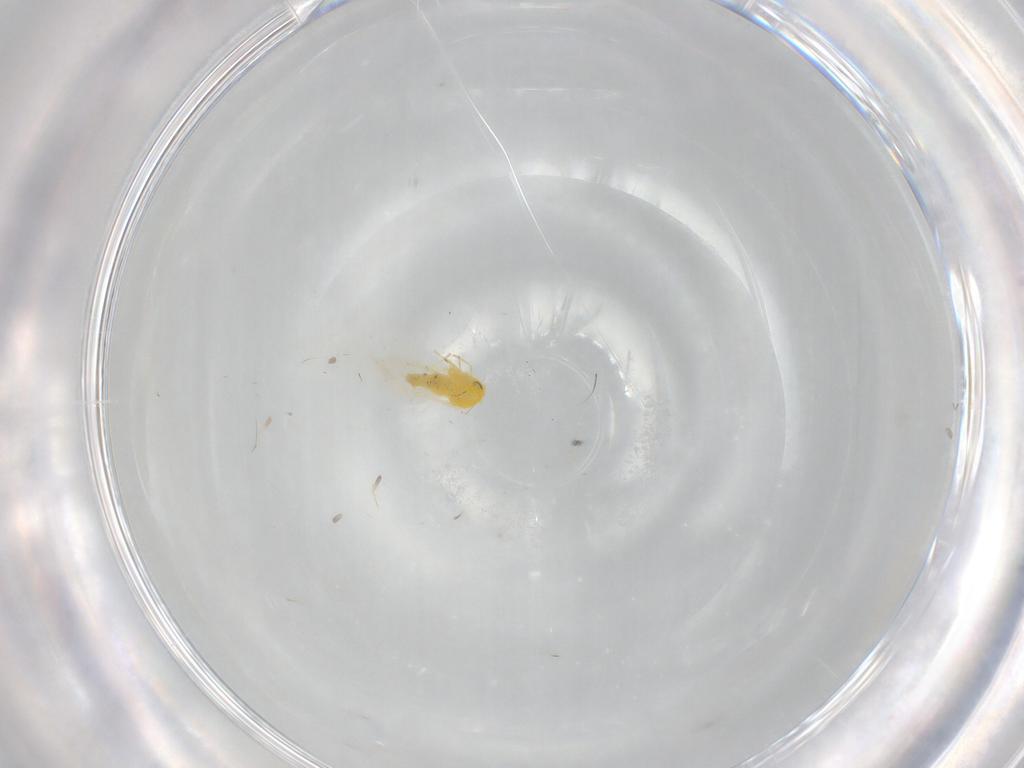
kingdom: Animalia
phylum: Arthropoda
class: Insecta
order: Hemiptera
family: Aleyrodidae
